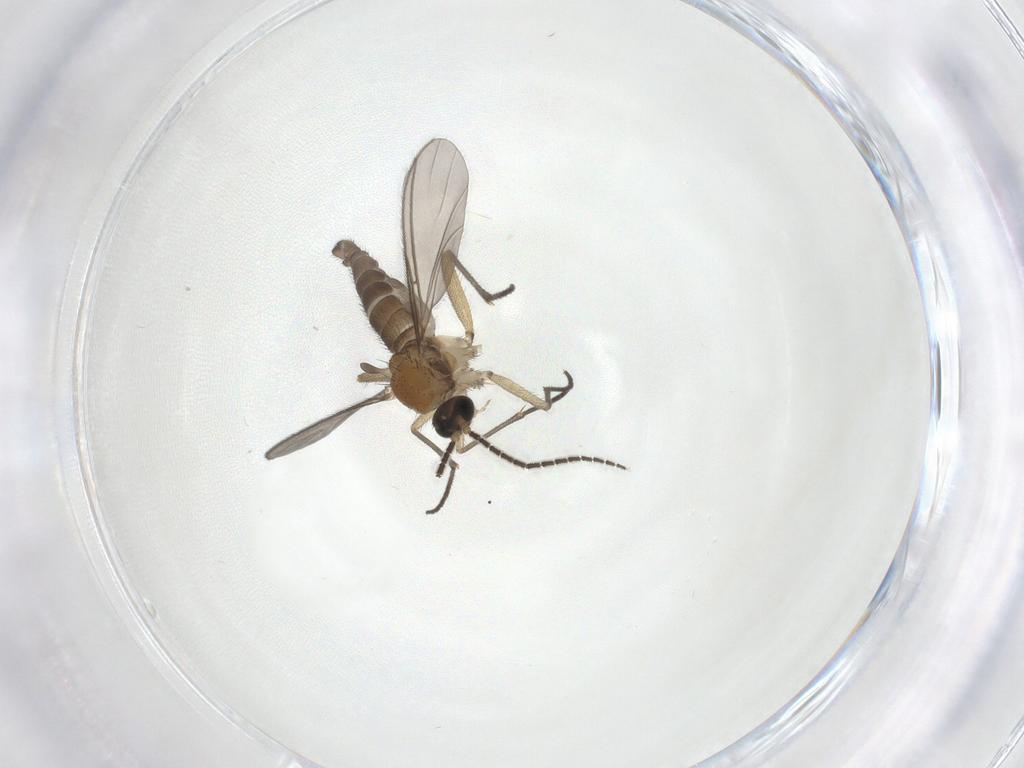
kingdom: Animalia
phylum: Arthropoda
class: Insecta
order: Diptera
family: Sciaridae
